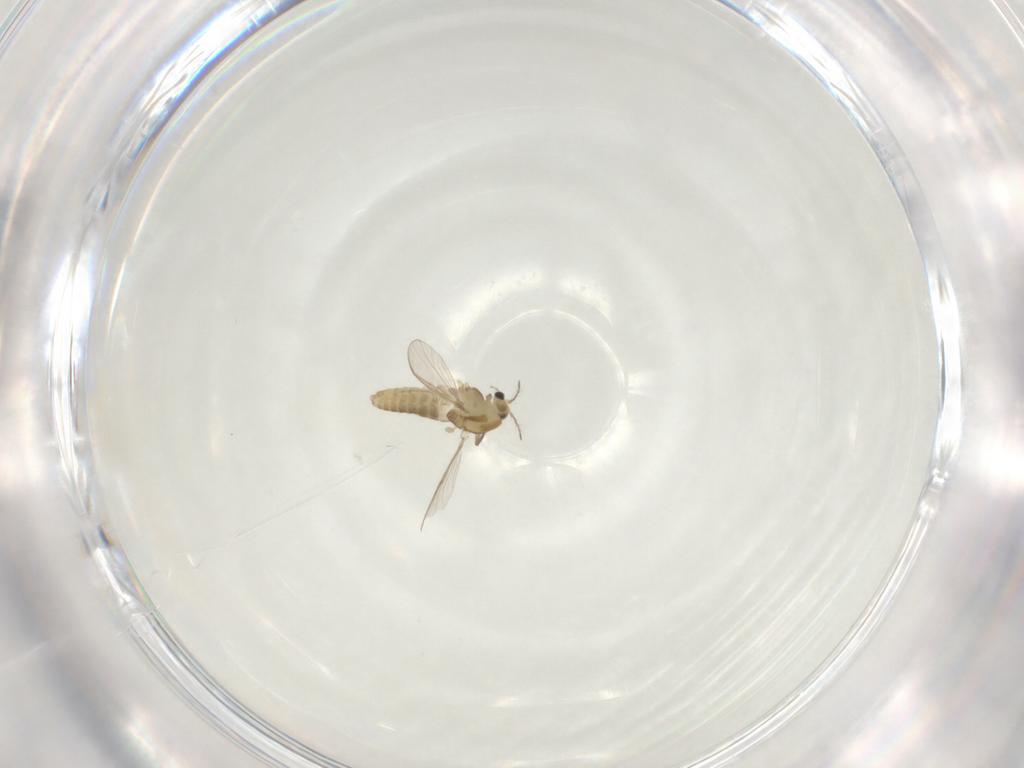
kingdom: Animalia
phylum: Arthropoda
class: Insecta
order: Diptera
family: Chironomidae
